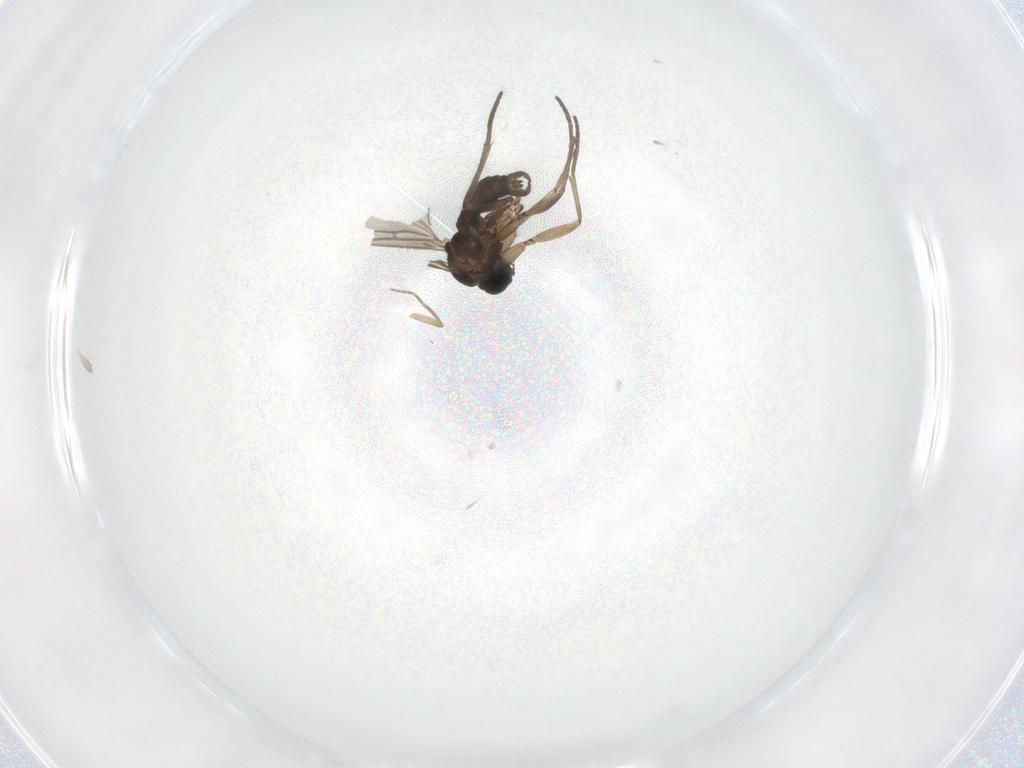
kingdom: Animalia
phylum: Arthropoda
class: Insecta
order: Diptera
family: Sciaridae
